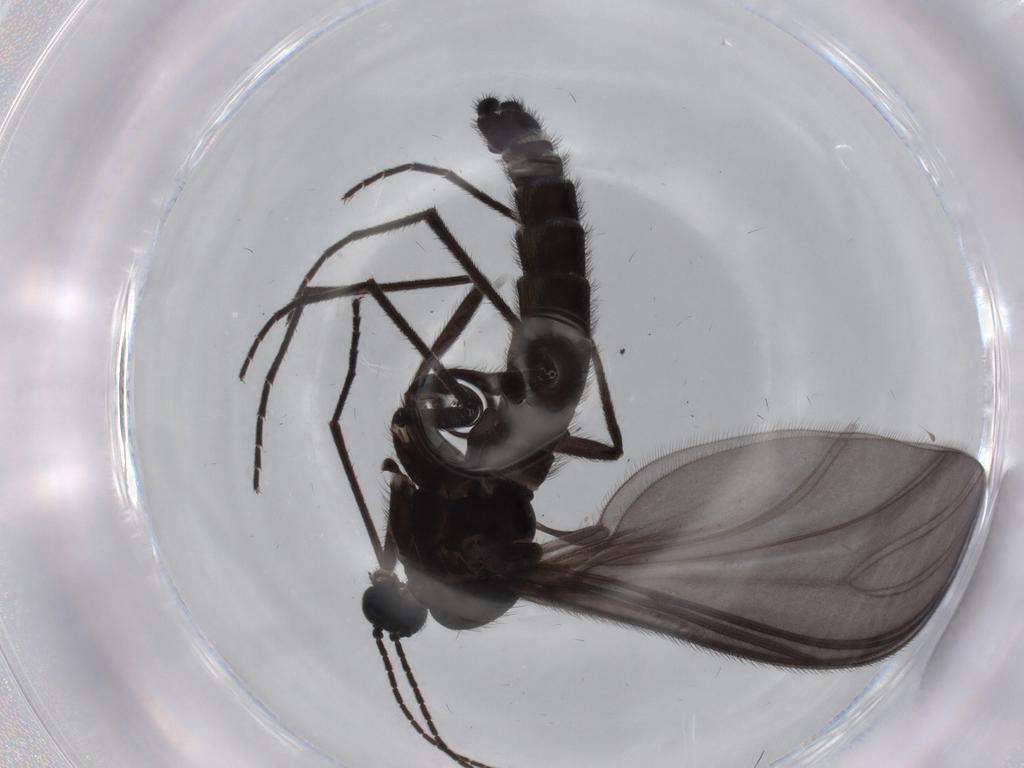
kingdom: Animalia
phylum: Arthropoda
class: Insecta
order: Diptera
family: Sciaridae
